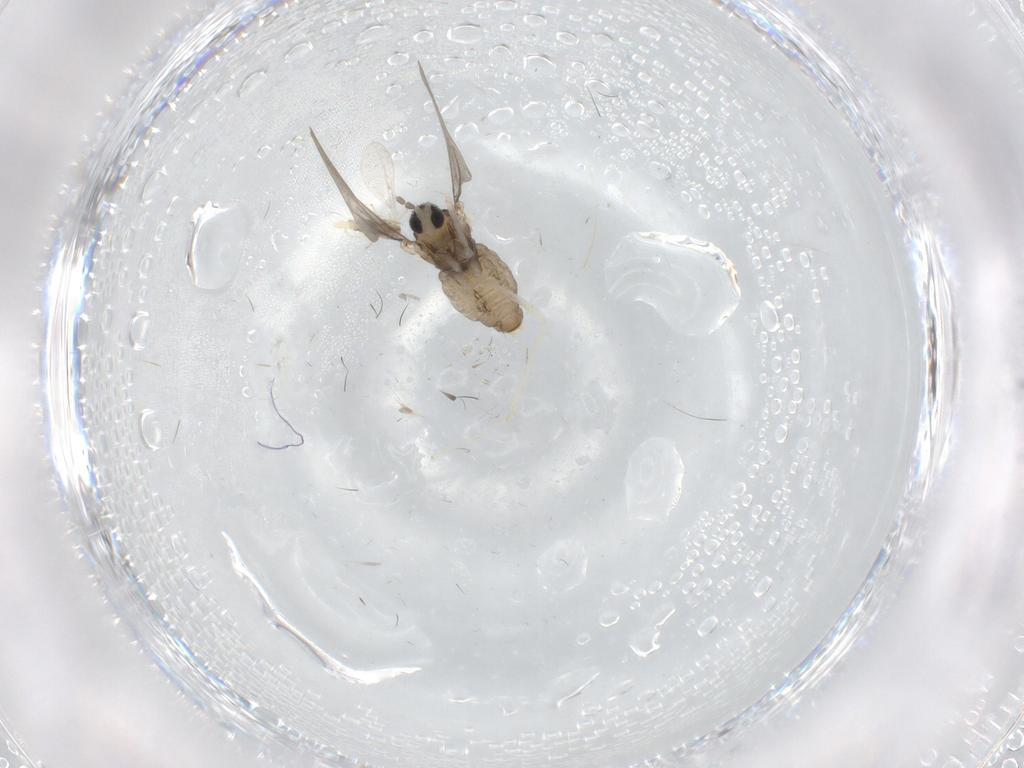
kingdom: Animalia
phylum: Arthropoda
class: Insecta
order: Diptera
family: Cecidomyiidae
